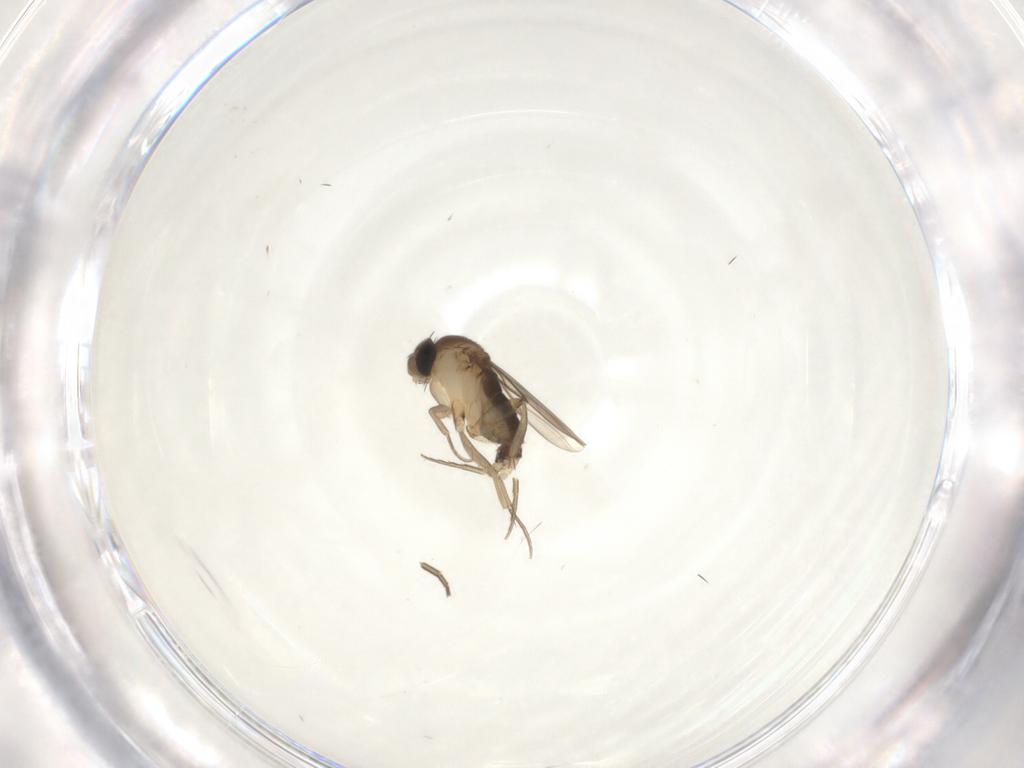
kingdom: Animalia
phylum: Arthropoda
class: Insecta
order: Diptera
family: Phoridae
